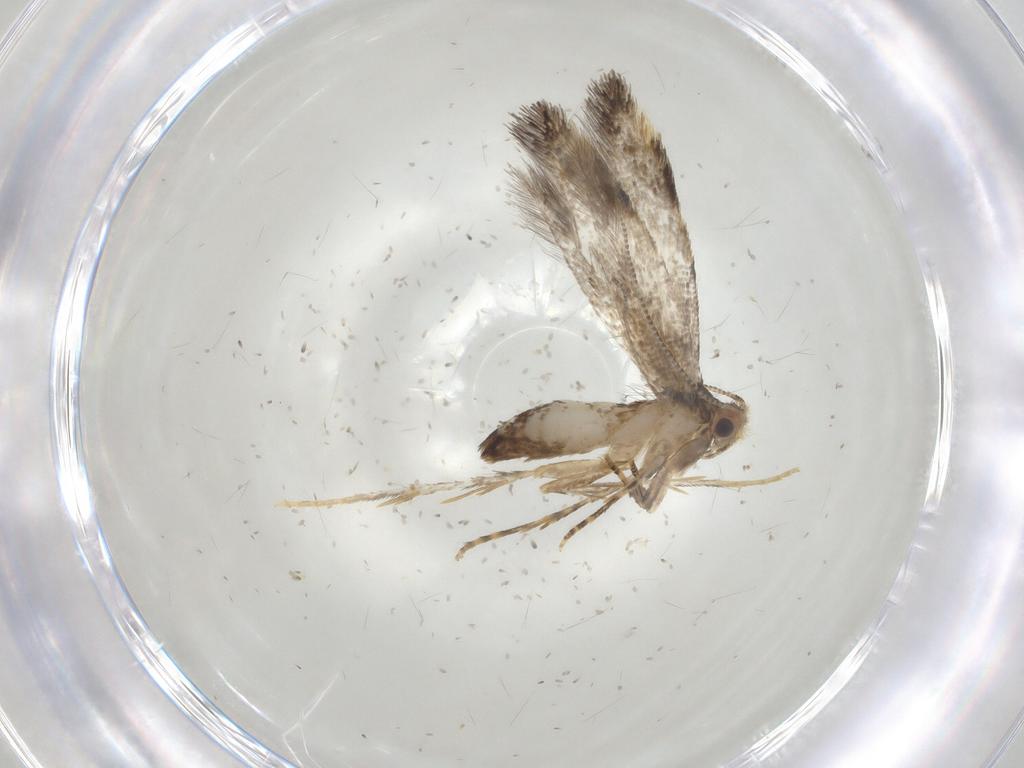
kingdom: Animalia
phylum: Arthropoda
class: Insecta
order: Lepidoptera
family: Tineidae
